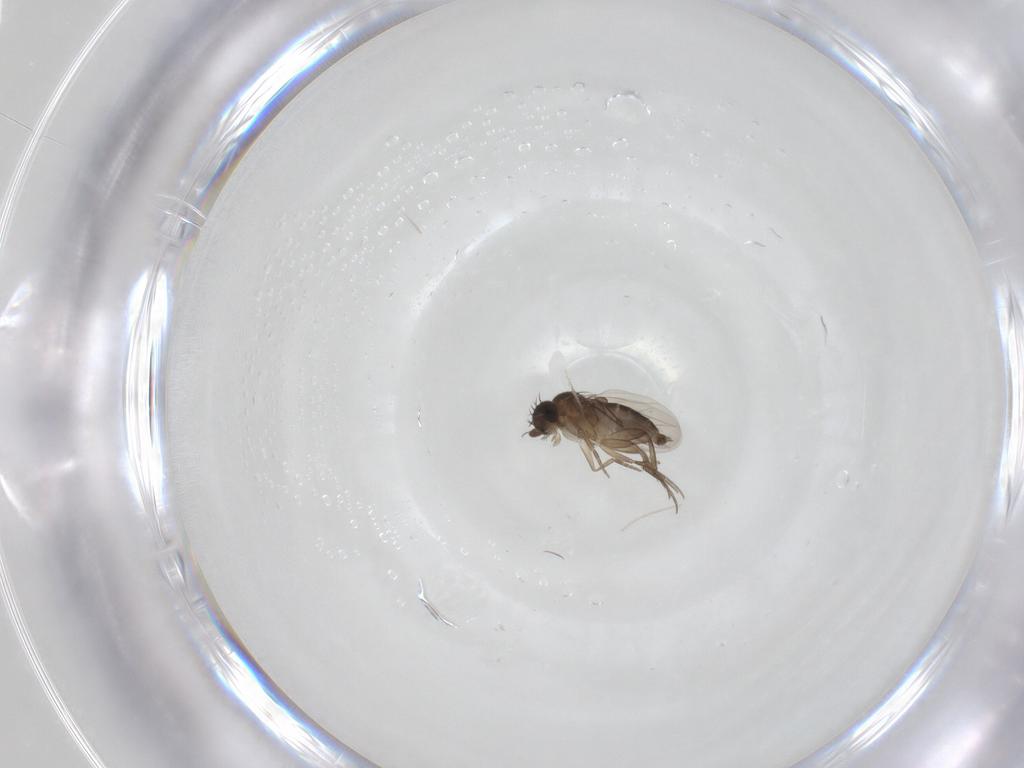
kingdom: Animalia
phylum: Arthropoda
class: Insecta
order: Diptera
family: Phoridae
